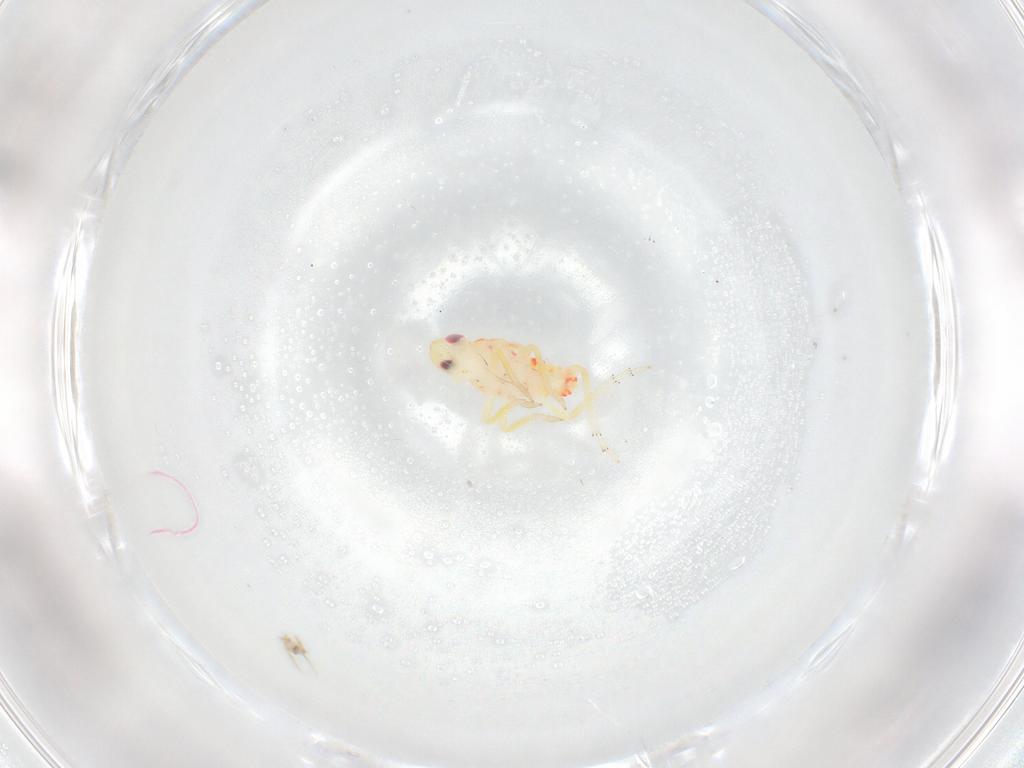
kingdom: Animalia
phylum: Arthropoda
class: Insecta
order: Hemiptera
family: Tropiduchidae
